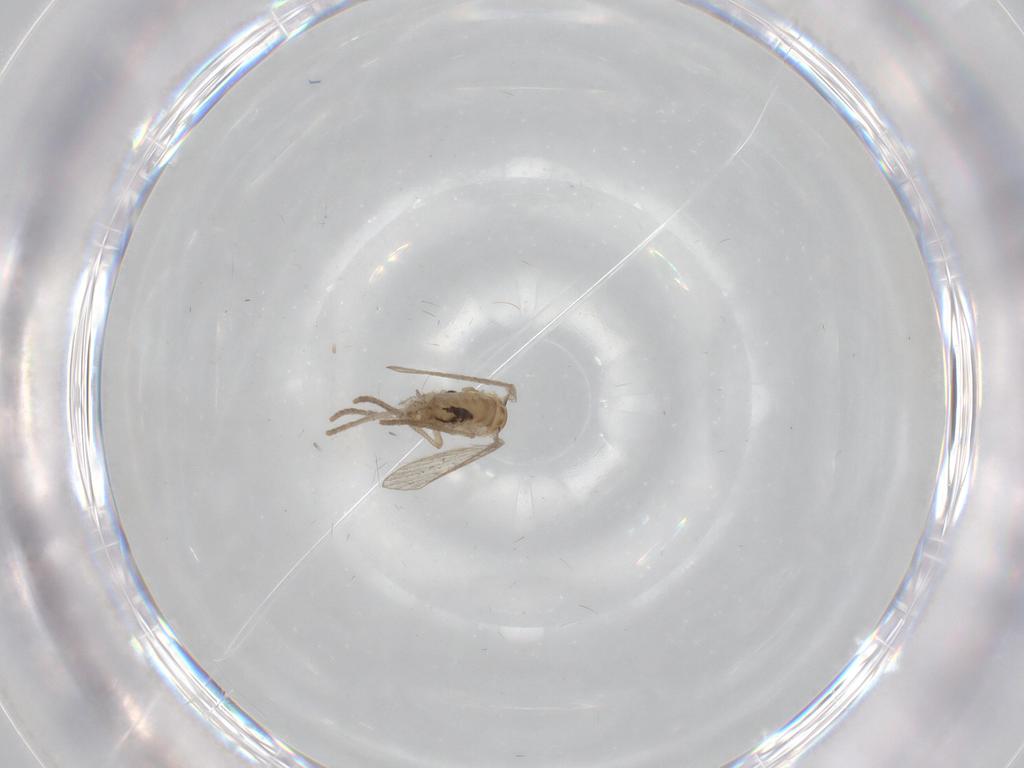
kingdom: Animalia
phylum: Arthropoda
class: Insecta
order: Diptera
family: Psychodidae
